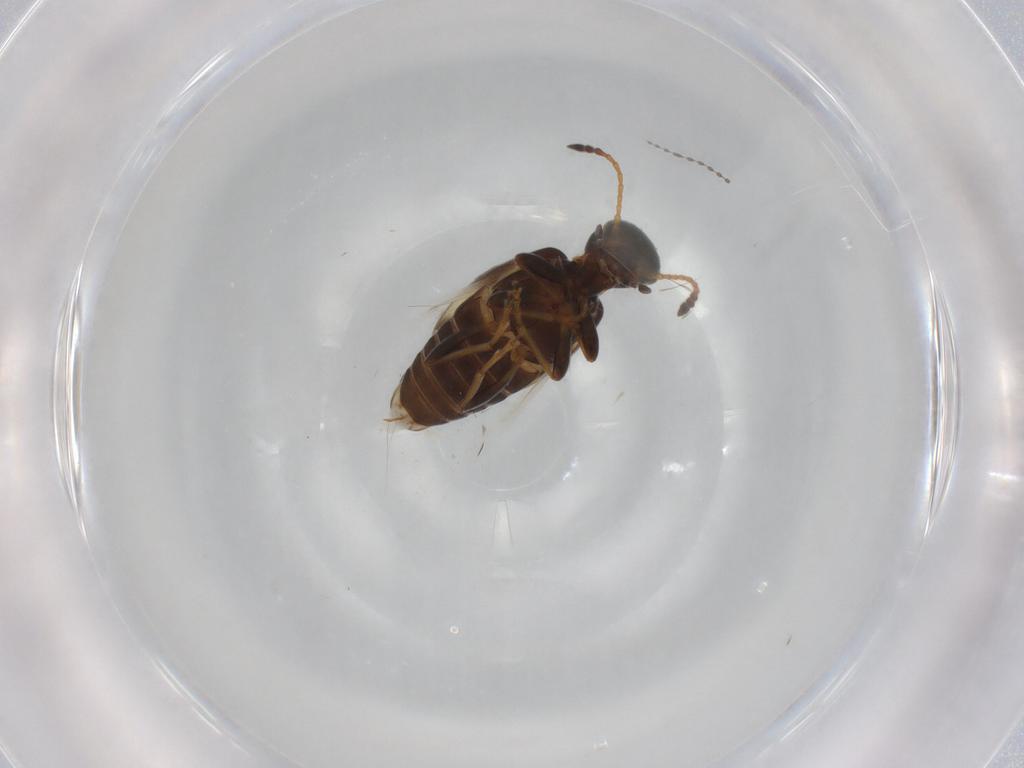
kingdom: Animalia
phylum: Arthropoda
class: Insecta
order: Coleoptera
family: Anthicidae
